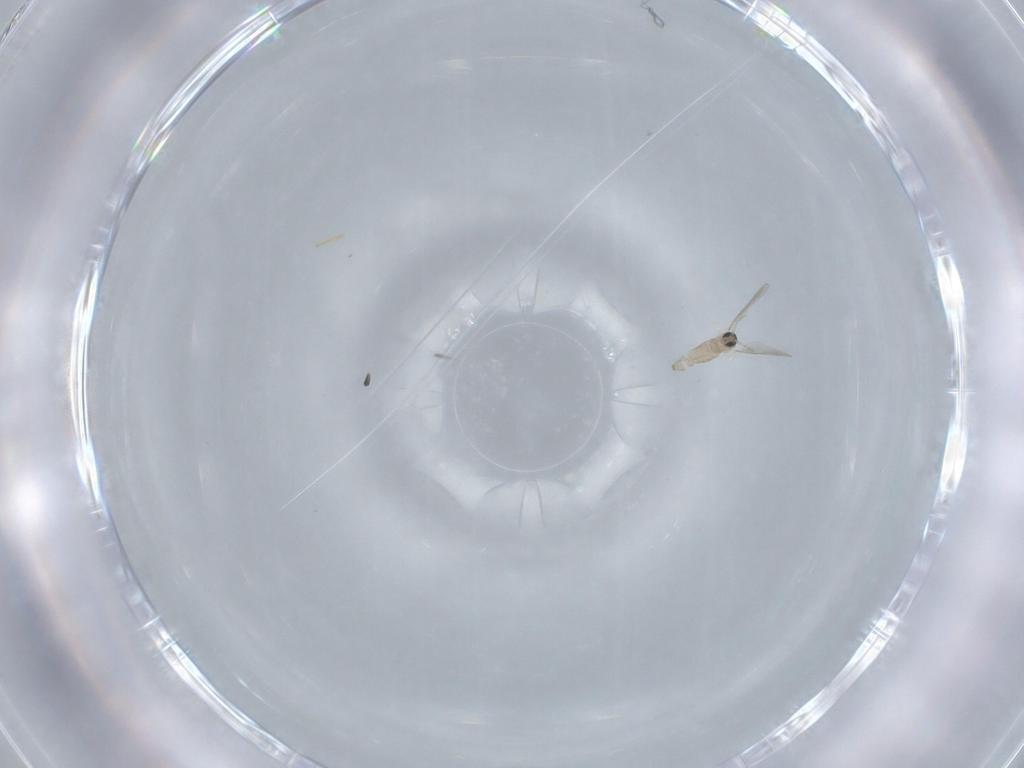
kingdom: Animalia
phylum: Arthropoda
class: Insecta
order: Diptera
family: Cecidomyiidae
